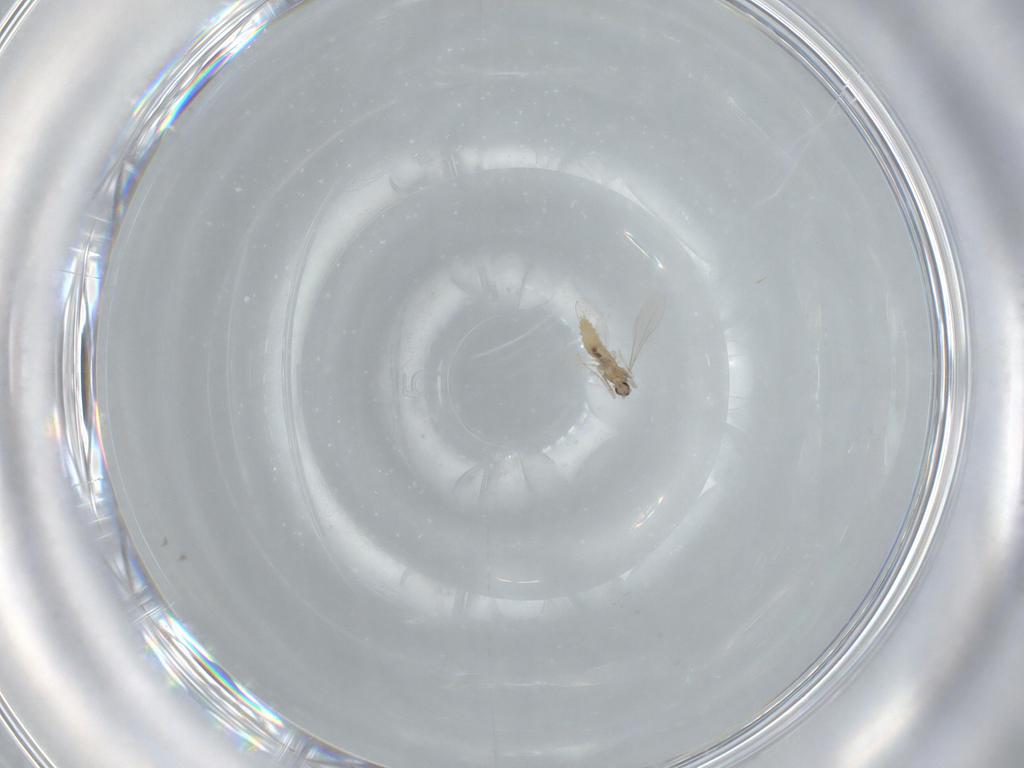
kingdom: Animalia
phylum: Arthropoda
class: Insecta
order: Diptera
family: Cecidomyiidae
